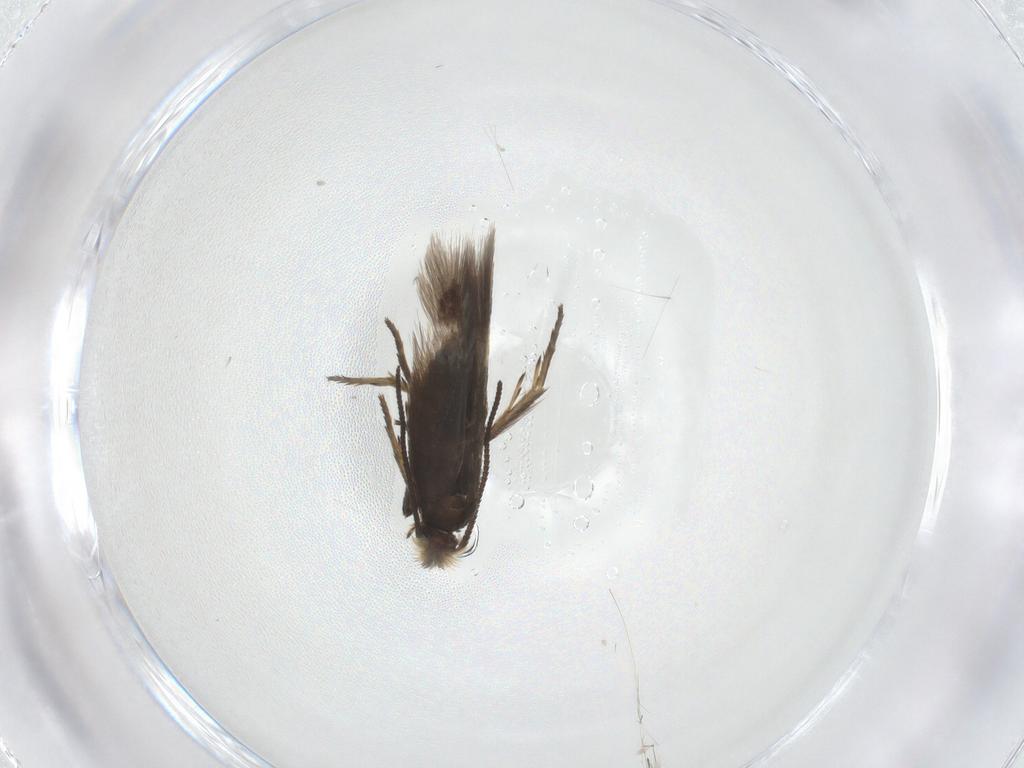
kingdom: Animalia
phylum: Arthropoda
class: Insecta
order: Lepidoptera
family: Nepticulidae
